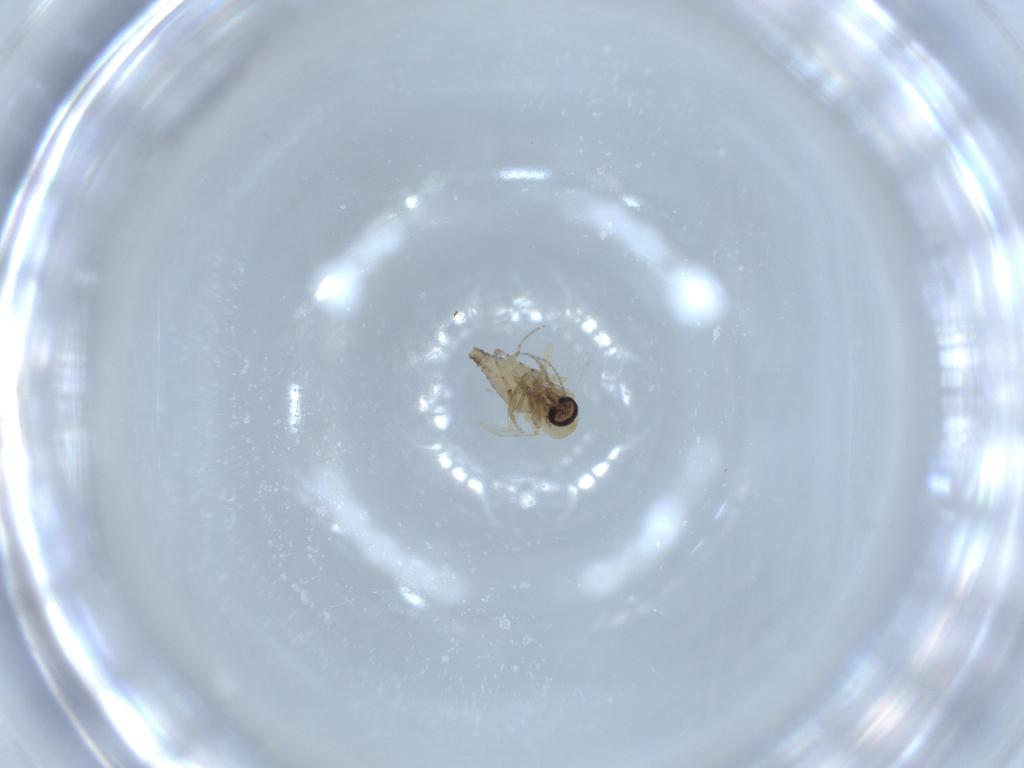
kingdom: Animalia
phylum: Arthropoda
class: Insecta
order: Diptera
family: Ceratopogonidae
